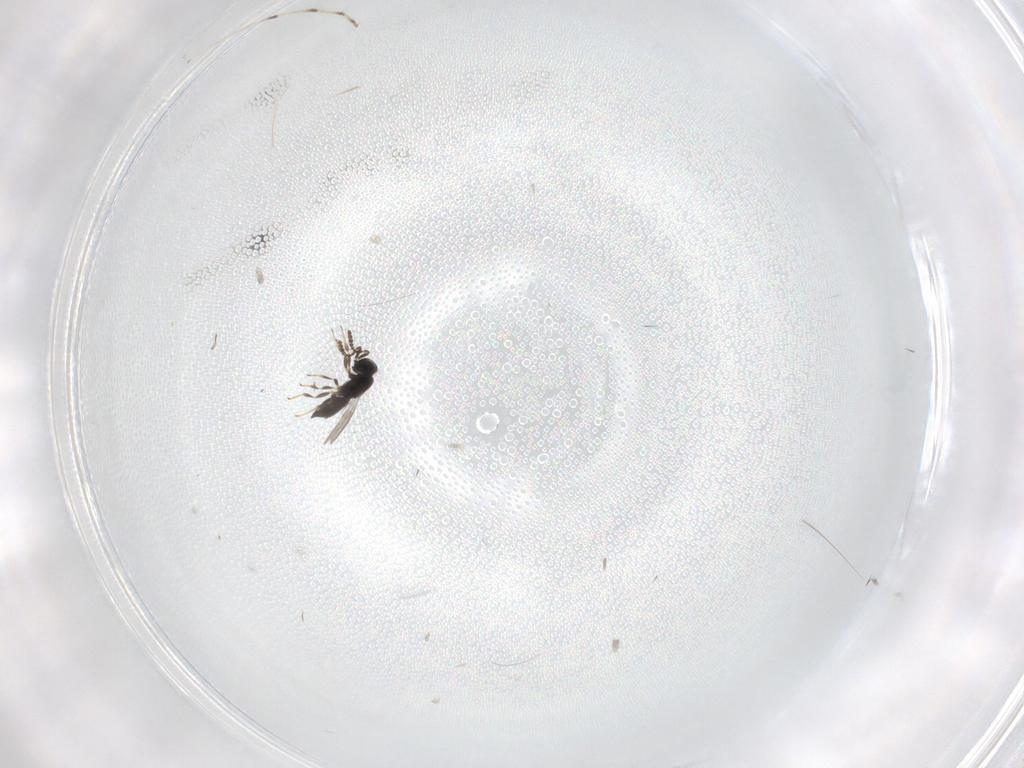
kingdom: Animalia
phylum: Arthropoda
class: Insecta
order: Hymenoptera
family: Scelionidae
